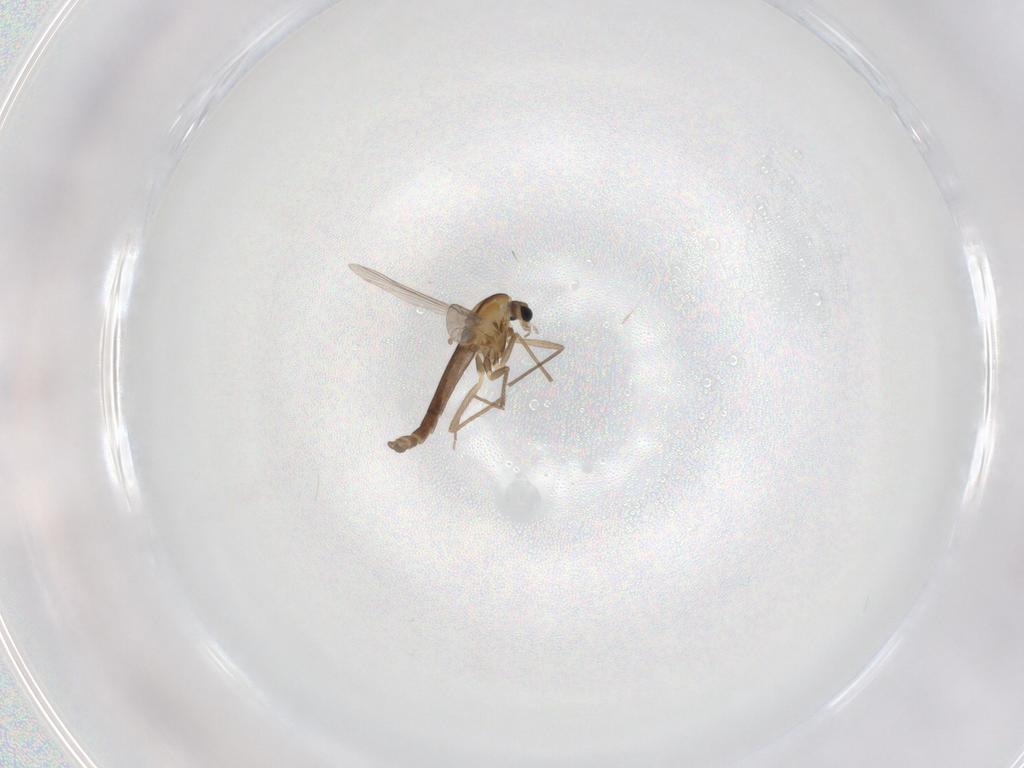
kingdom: Animalia
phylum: Arthropoda
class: Insecta
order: Diptera
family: Chironomidae
